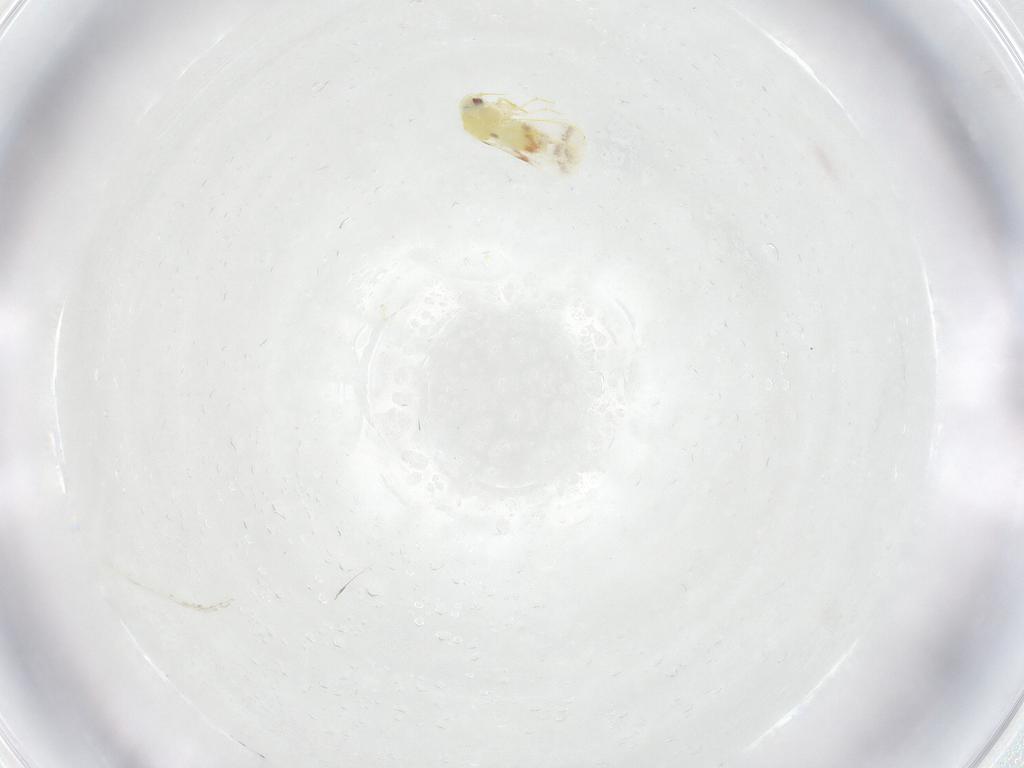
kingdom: Animalia
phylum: Arthropoda
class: Insecta
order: Hemiptera
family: Aleyrodidae
